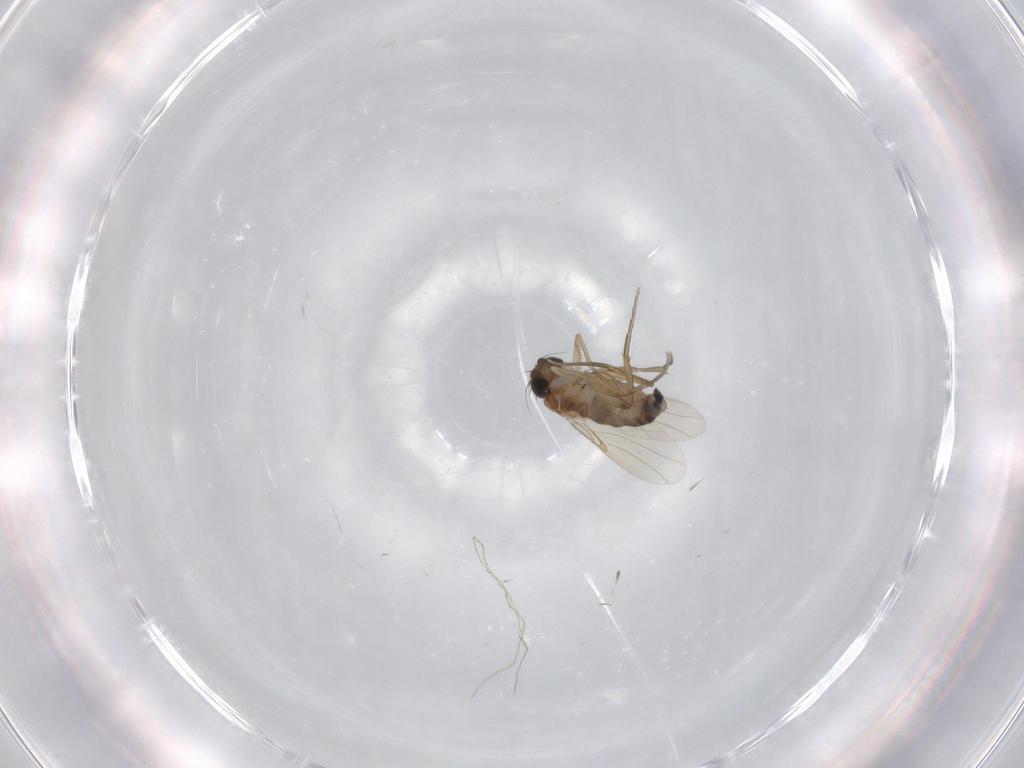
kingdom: Animalia
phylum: Arthropoda
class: Insecta
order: Diptera
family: Phoridae
